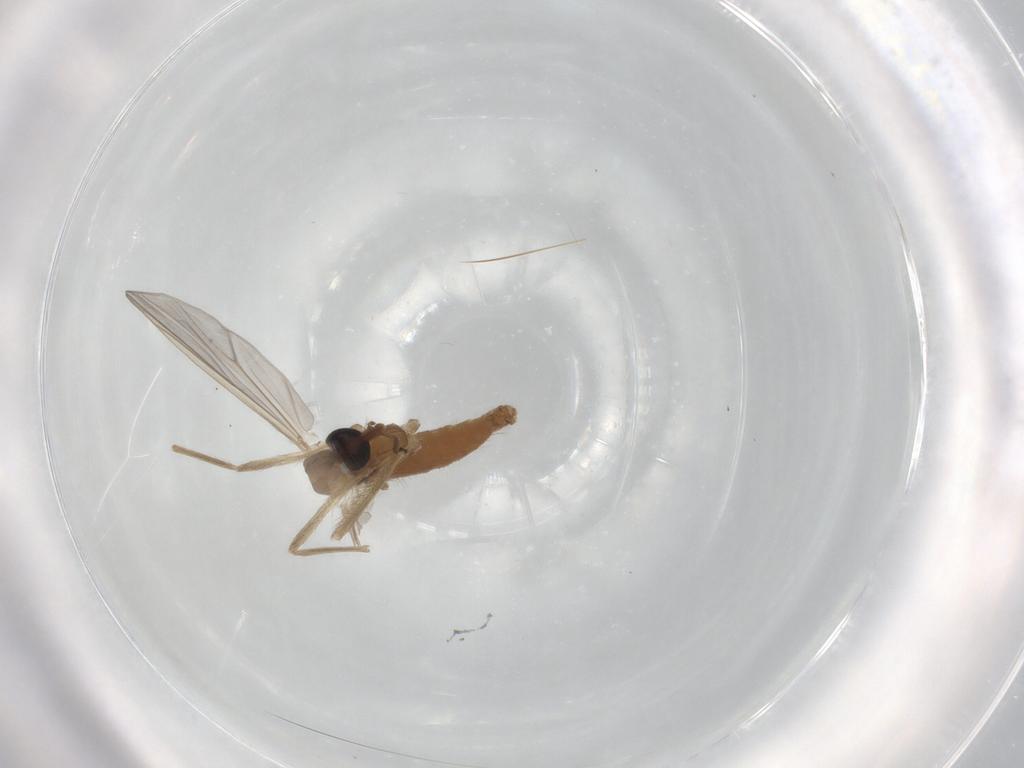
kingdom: Animalia
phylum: Arthropoda
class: Insecta
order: Diptera
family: Chironomidae
